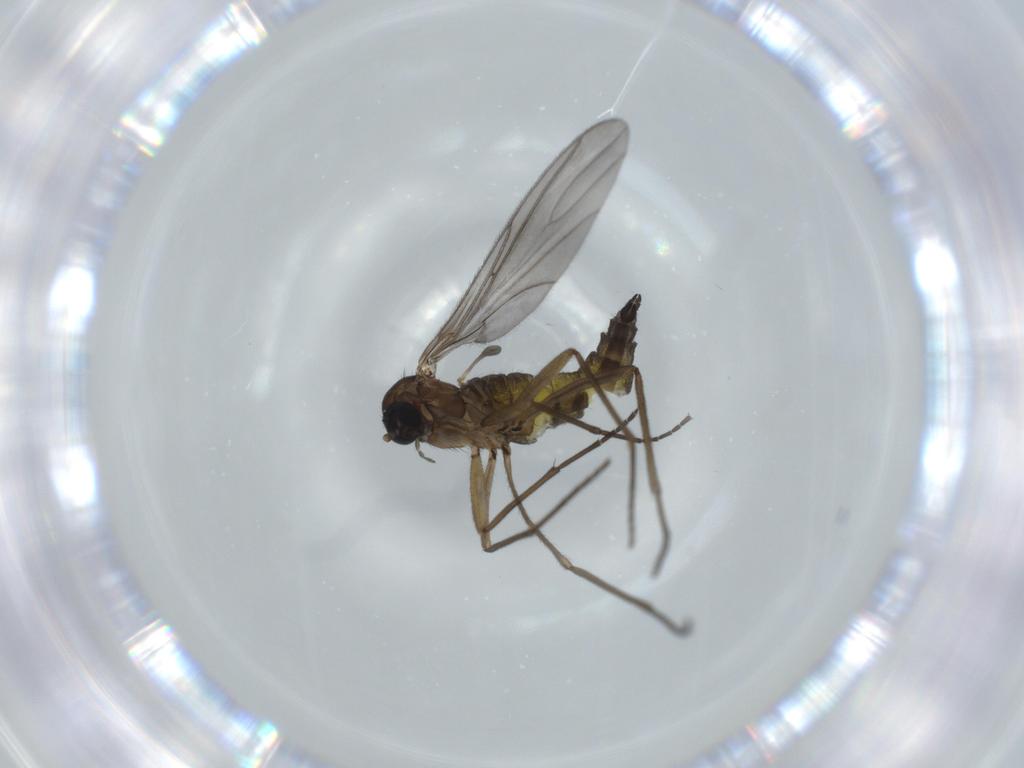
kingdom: Animalia
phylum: Arthropoda
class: Insecta
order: Diptera
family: Sciaridae
